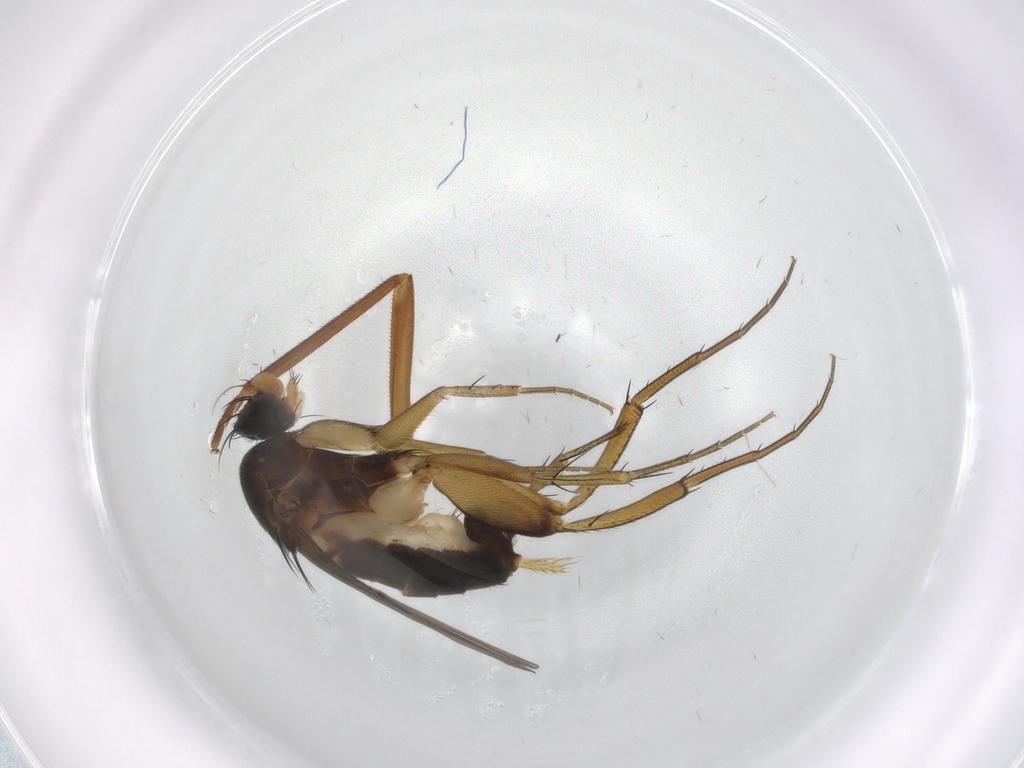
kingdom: Animalia
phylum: Arthropoda
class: Insecta
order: Diptera
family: Phoridae
